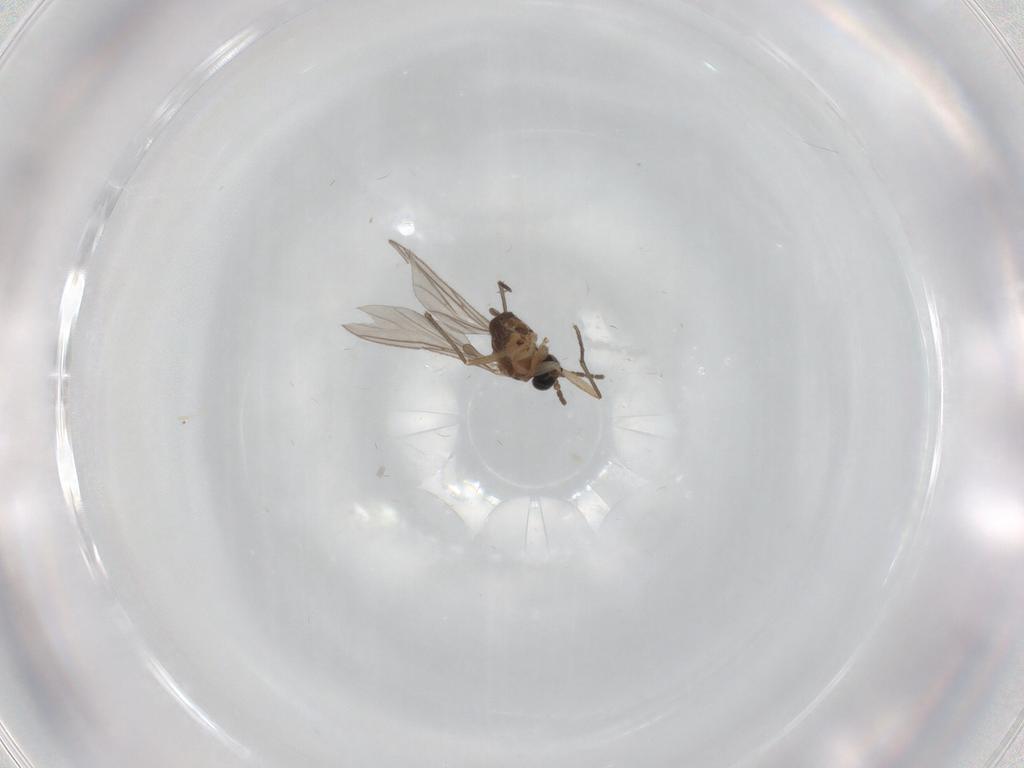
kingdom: Animalia
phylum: Arthropoda
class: Insecta
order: Diptera
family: Sciaridae
